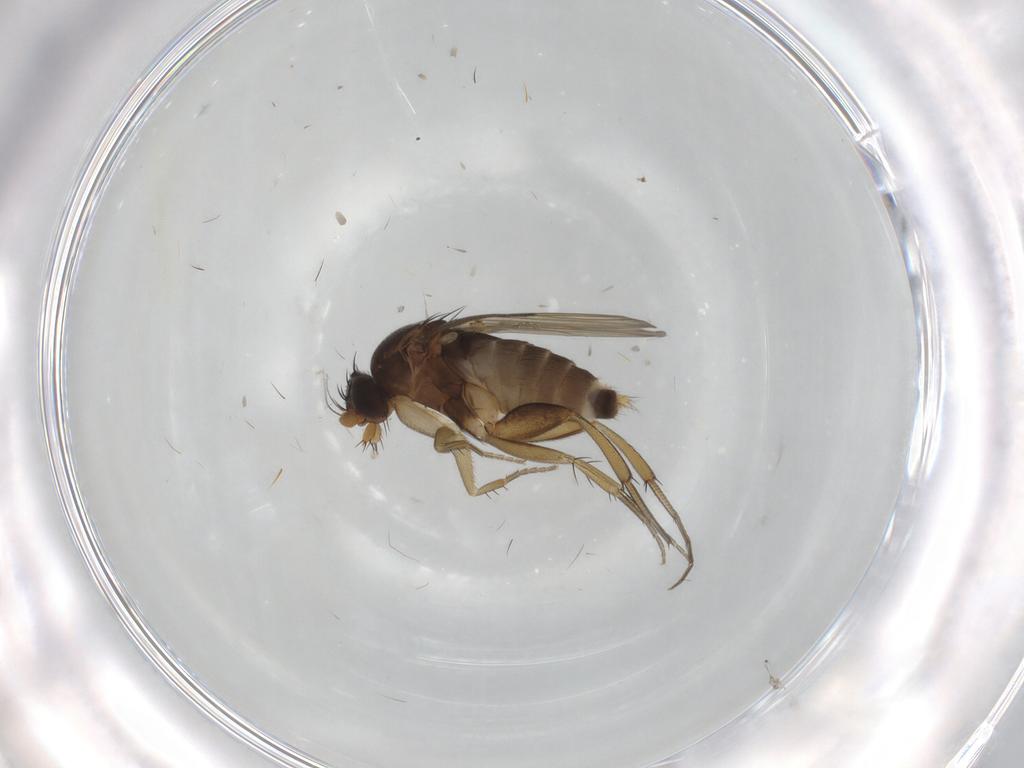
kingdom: Animalia
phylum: Arthropoda
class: Insecta
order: Diptera
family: Phoridae
